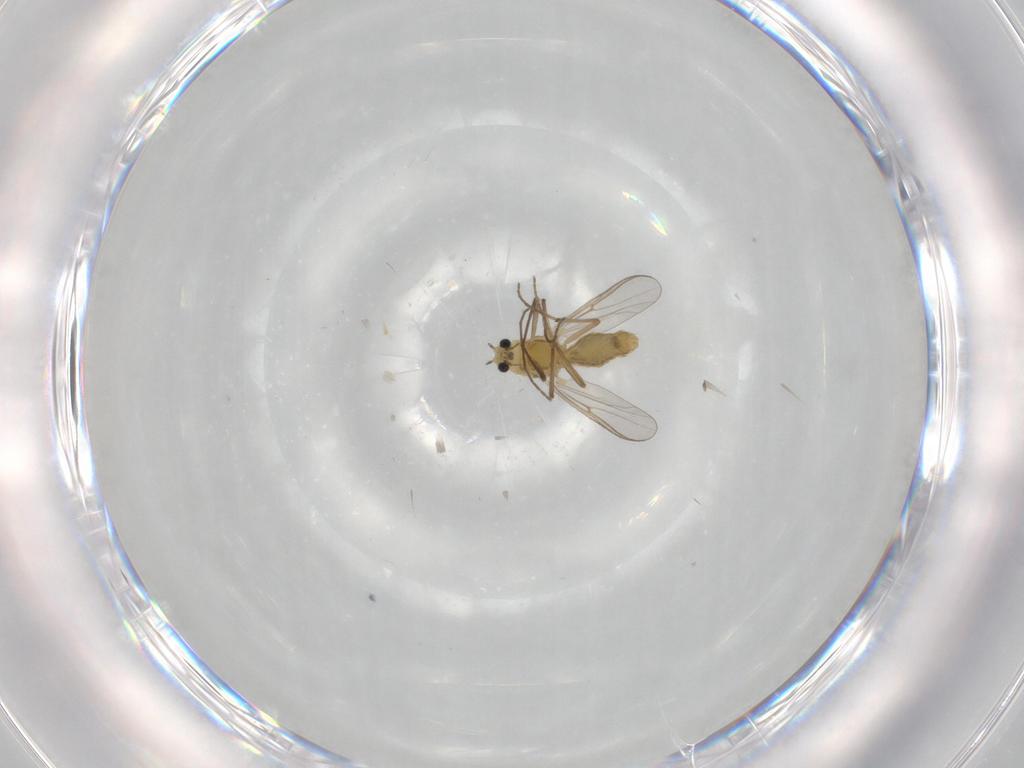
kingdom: Animalia
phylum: Arthropoda
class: Insecta
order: Diptera
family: Chironomidae
